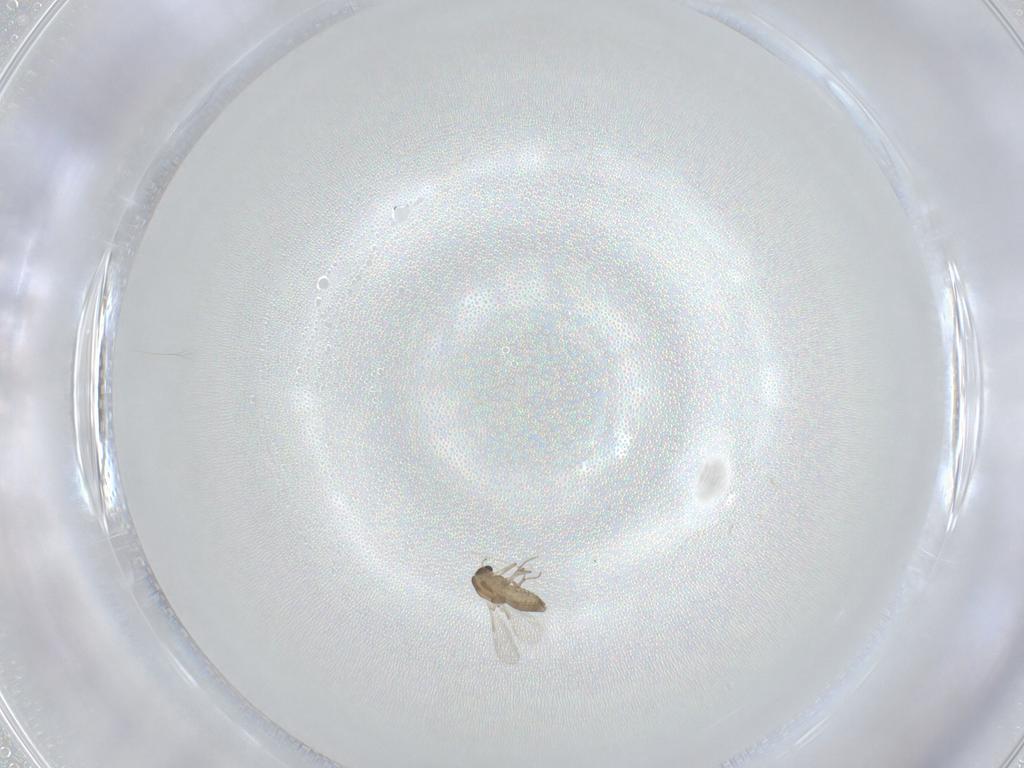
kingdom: Animalia
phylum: Arthropoda
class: Insecta
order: Diptera
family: Chironomidae
